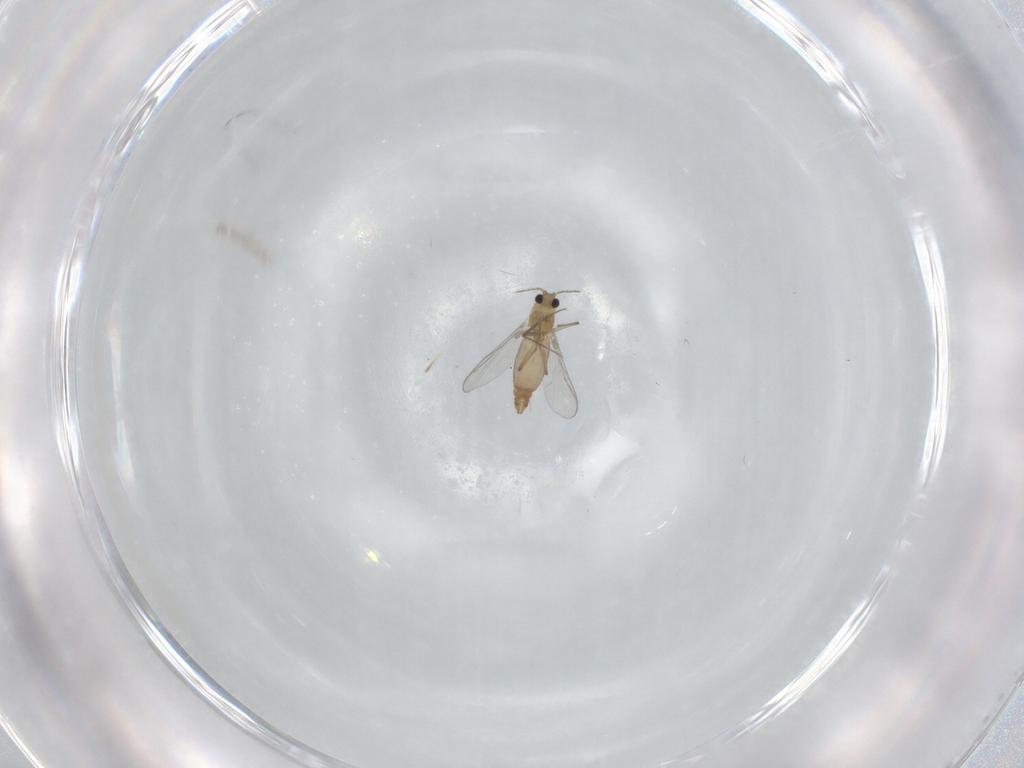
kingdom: Animalia
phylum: Arthropoda
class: Insecta
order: Diptera
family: Chironomidae
